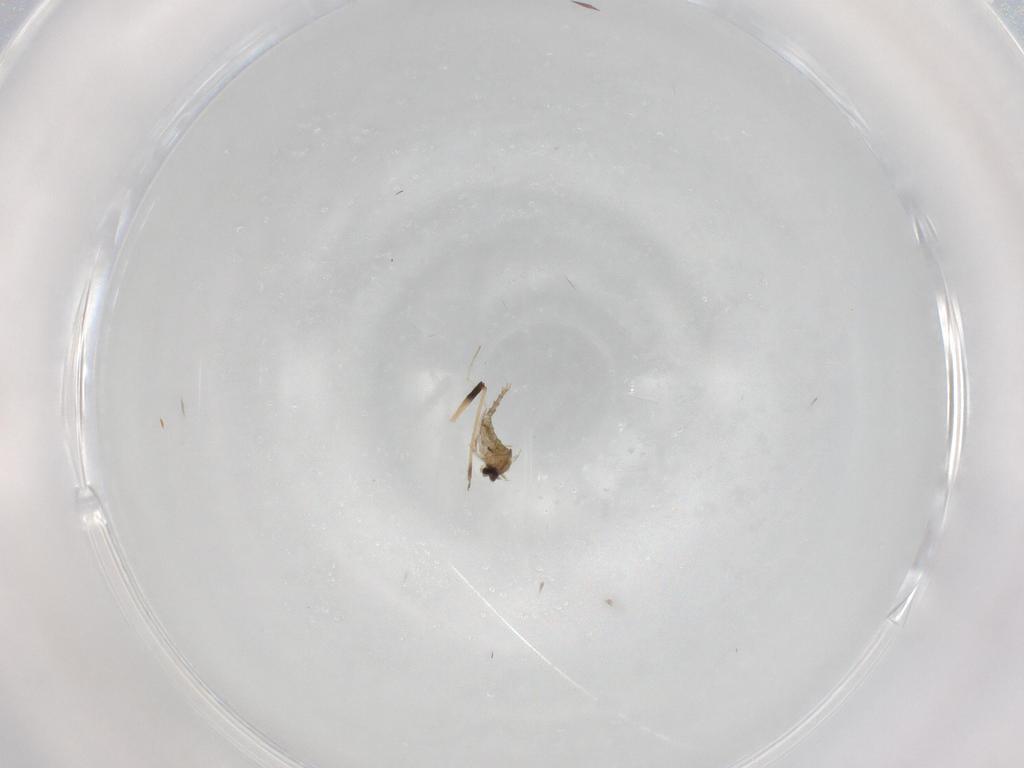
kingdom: Animalia
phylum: Arthropoda
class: Insecta
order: Diptera
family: Cecidomyiidae
